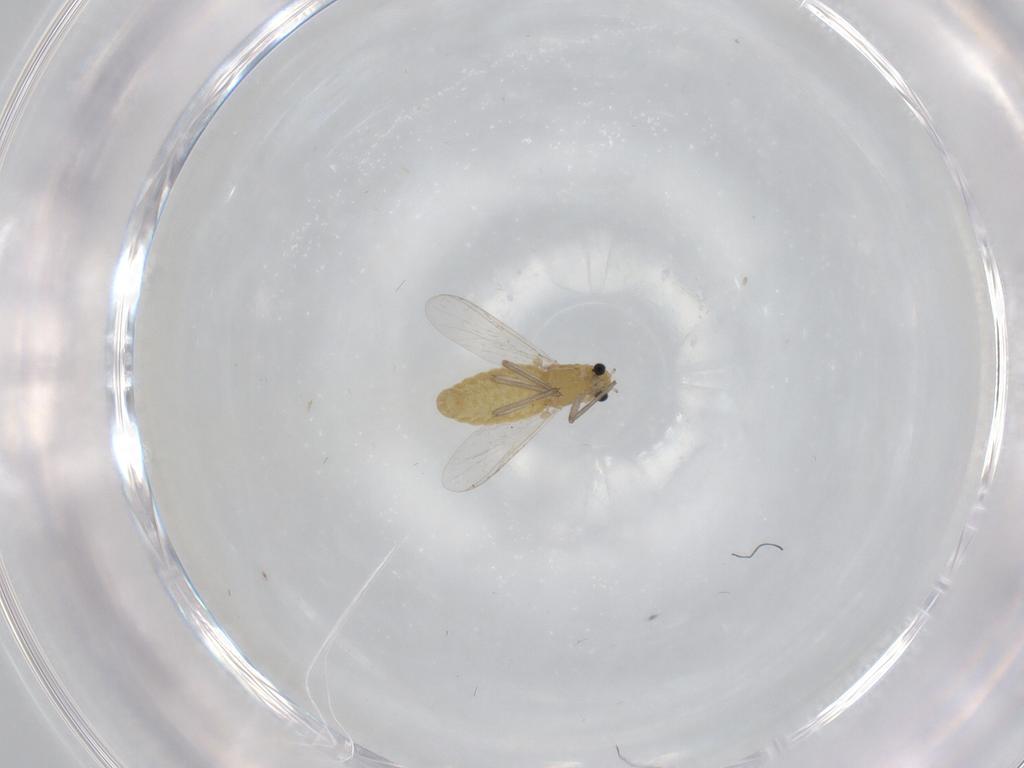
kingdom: Animalia
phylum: Arthropoda
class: Insecta
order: Diptera
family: Chironomidae
